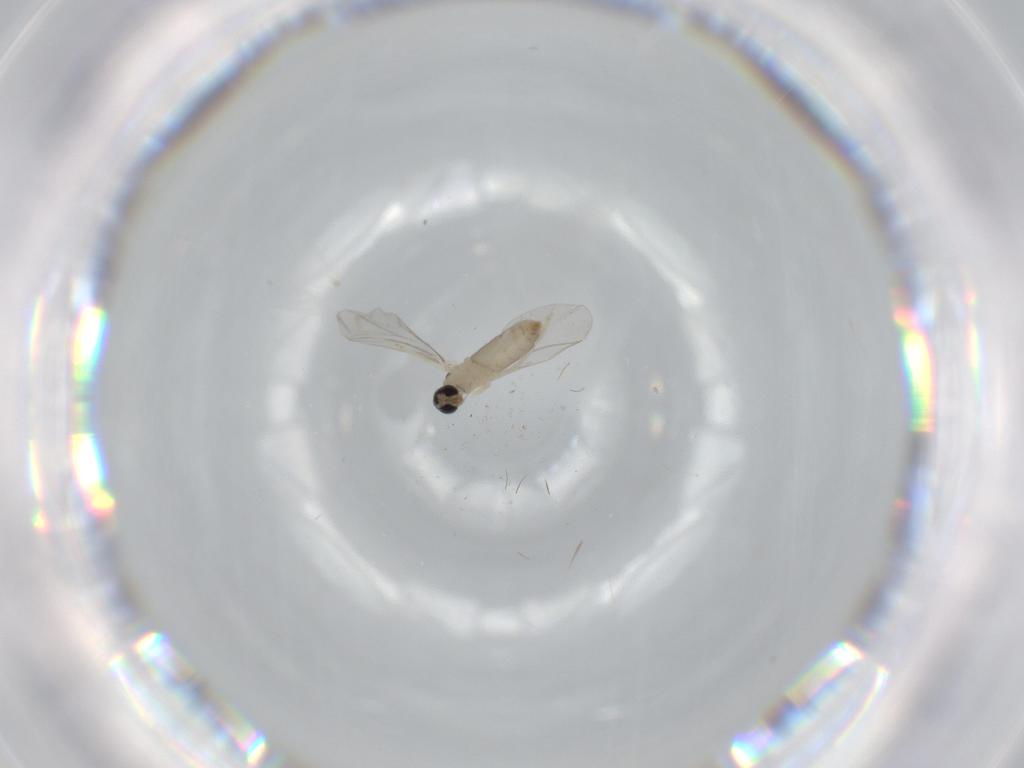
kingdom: Animalia
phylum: Arthropoda
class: Insecta
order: Diptera
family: Cecidomyiidae
